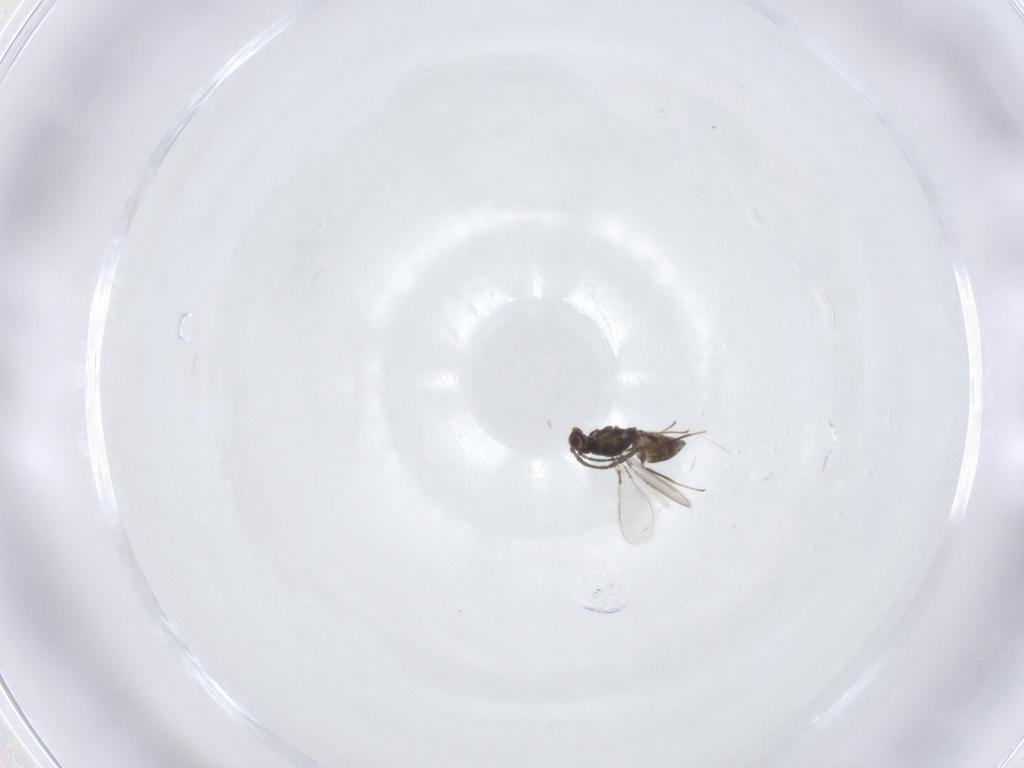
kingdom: Animalia
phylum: Arthropoda
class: Insecta
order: Hymenoptera
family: Mymaridae
